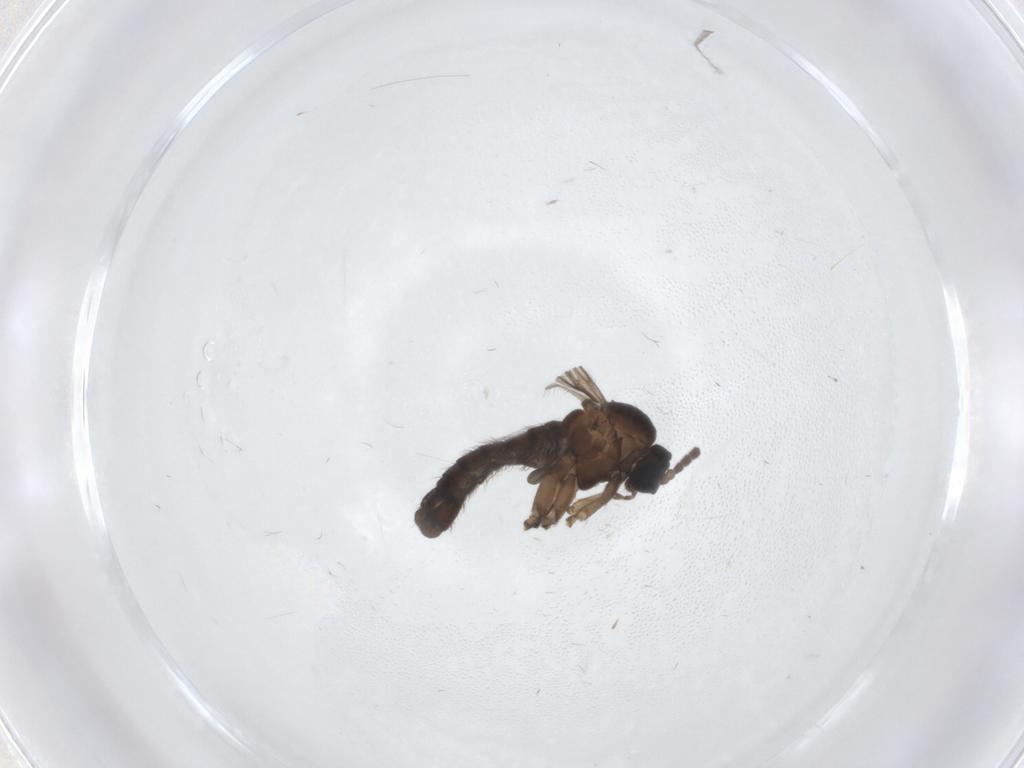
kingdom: Animalia
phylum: Arthropoda
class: Insecta
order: Diptera
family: Sciaridae
